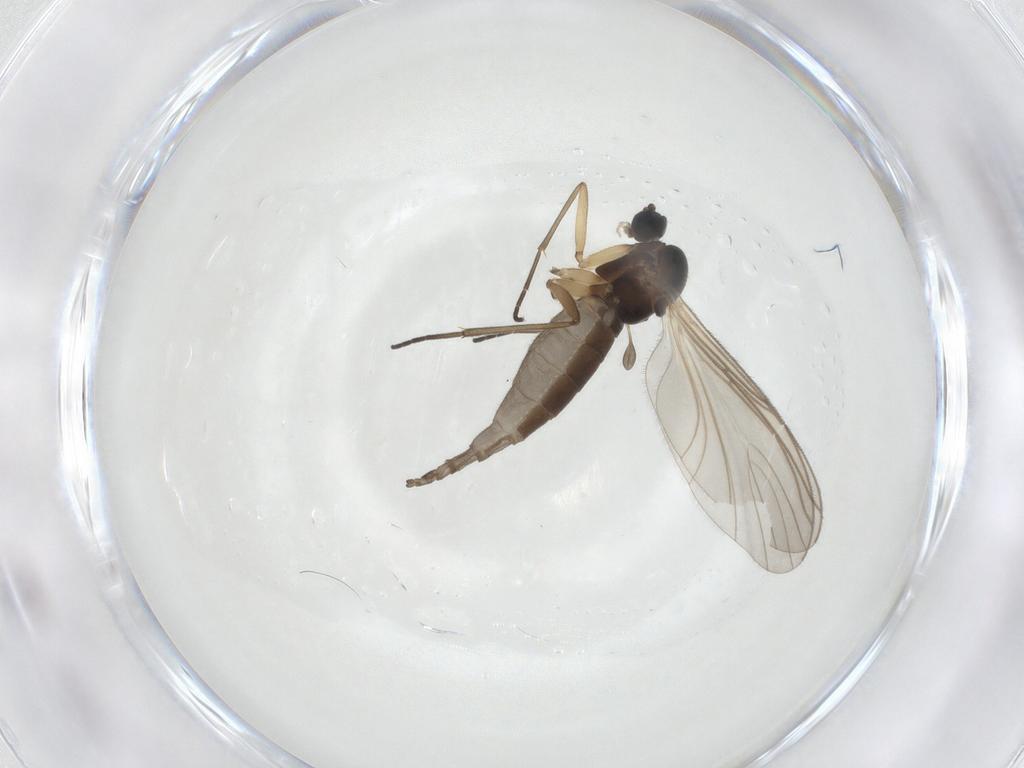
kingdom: Animalia
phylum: Arthropoda
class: Insecta
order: Diptera
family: Sciaridae
